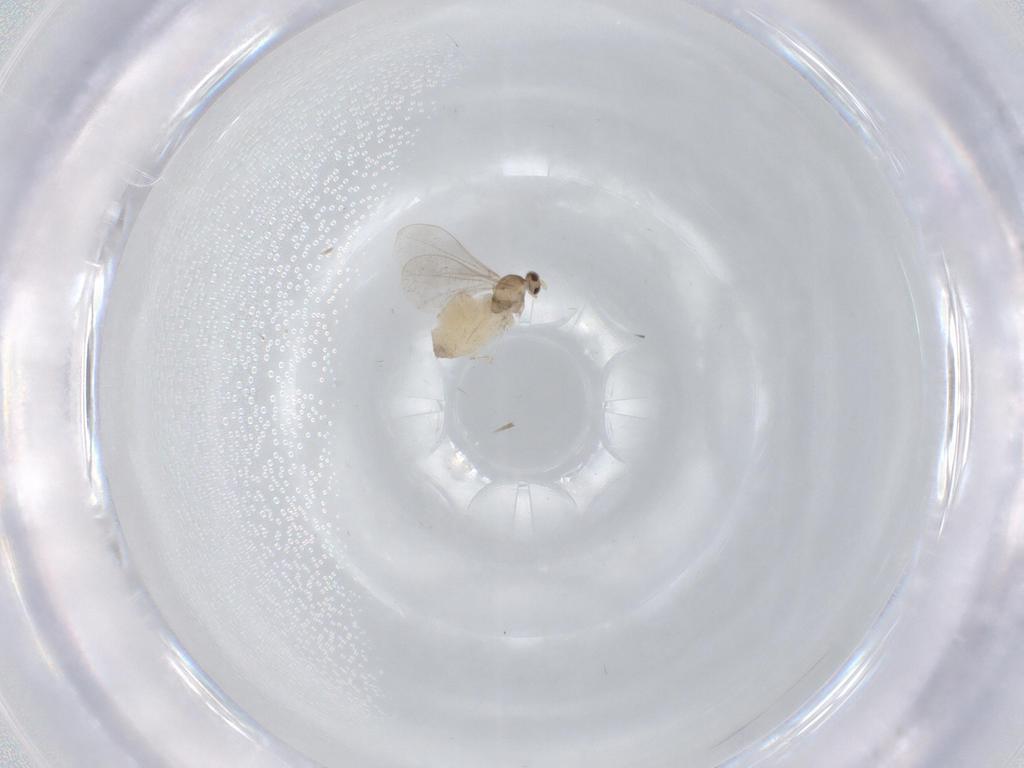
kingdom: Animalia
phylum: Arthropoda
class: Insecta
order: Diptera
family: Cecidomyiidae
